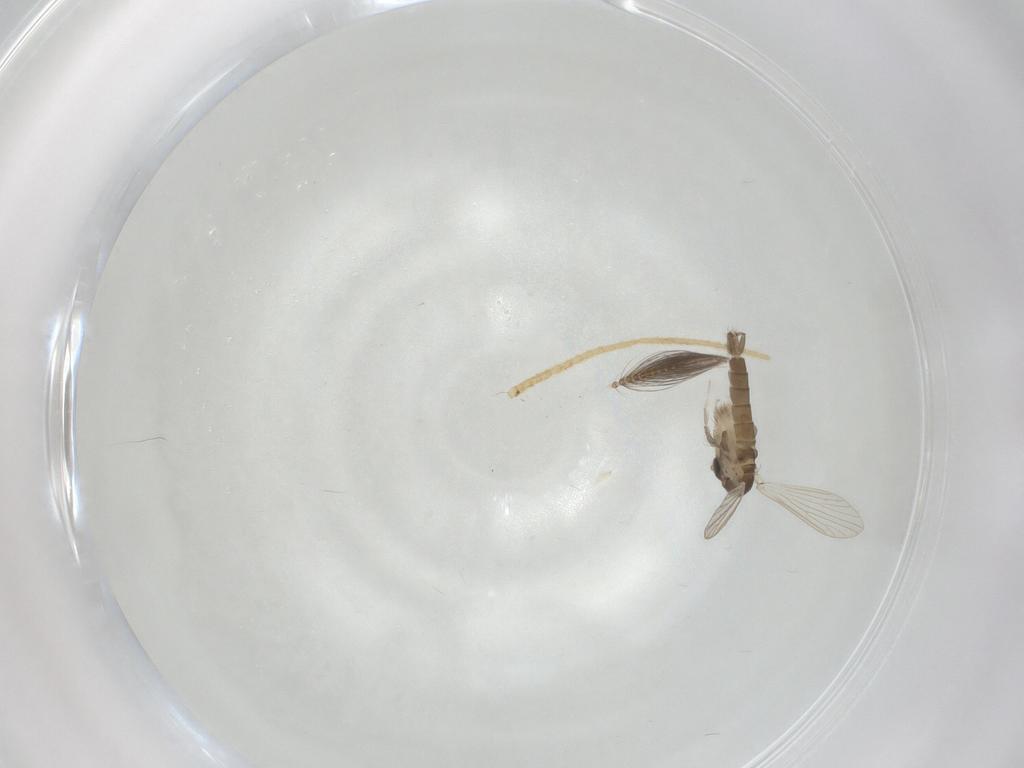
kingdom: Animalia
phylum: Arthropoda
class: Insecta
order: Diptera
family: Psychodidae
